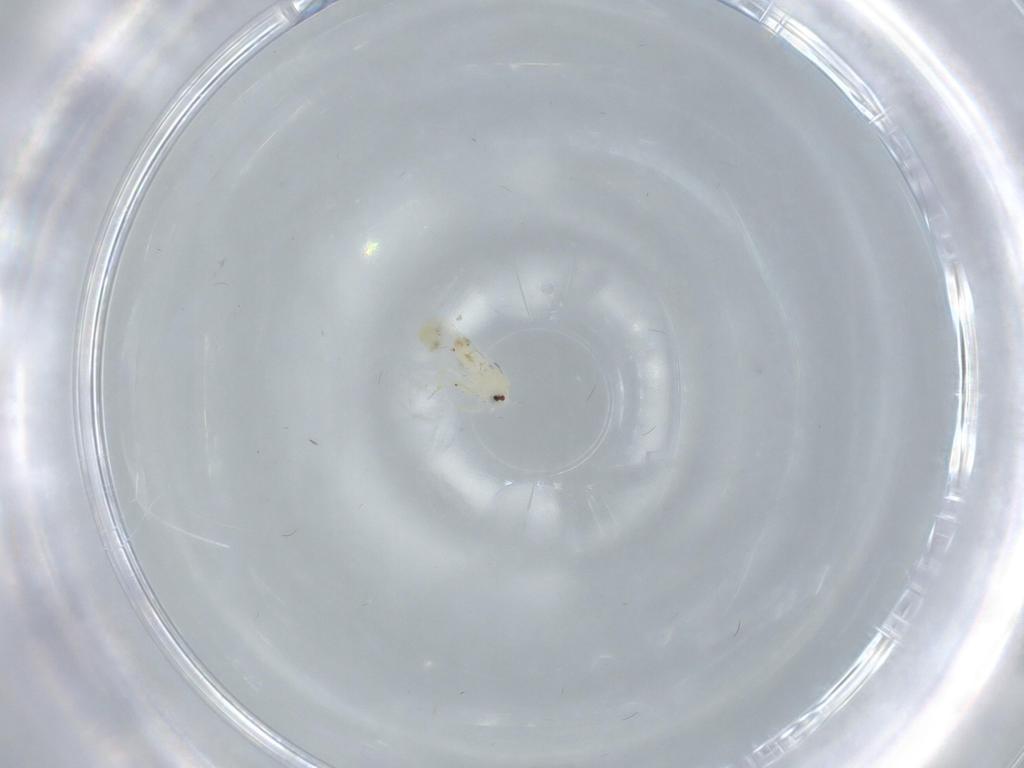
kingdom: Animalia
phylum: Arthropoda
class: Insecta
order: Hemiptera
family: Aleyrodidae
